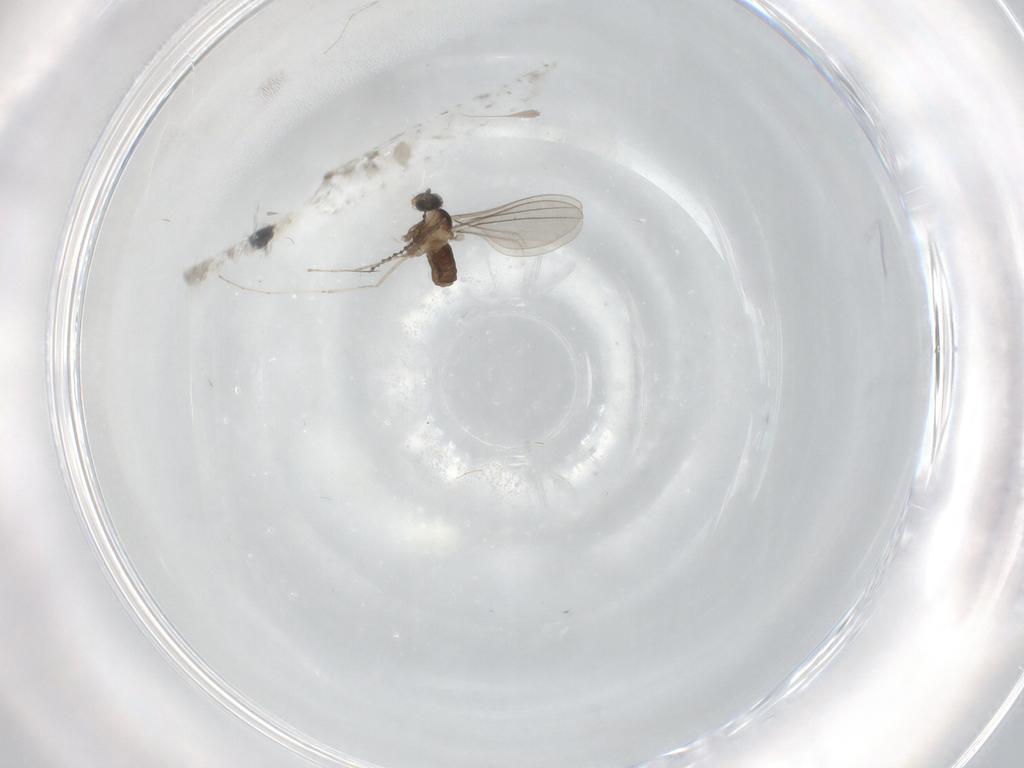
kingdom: Animalia
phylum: Arthropoda
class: Insecta
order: Diptera
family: Cecidomyiidae
